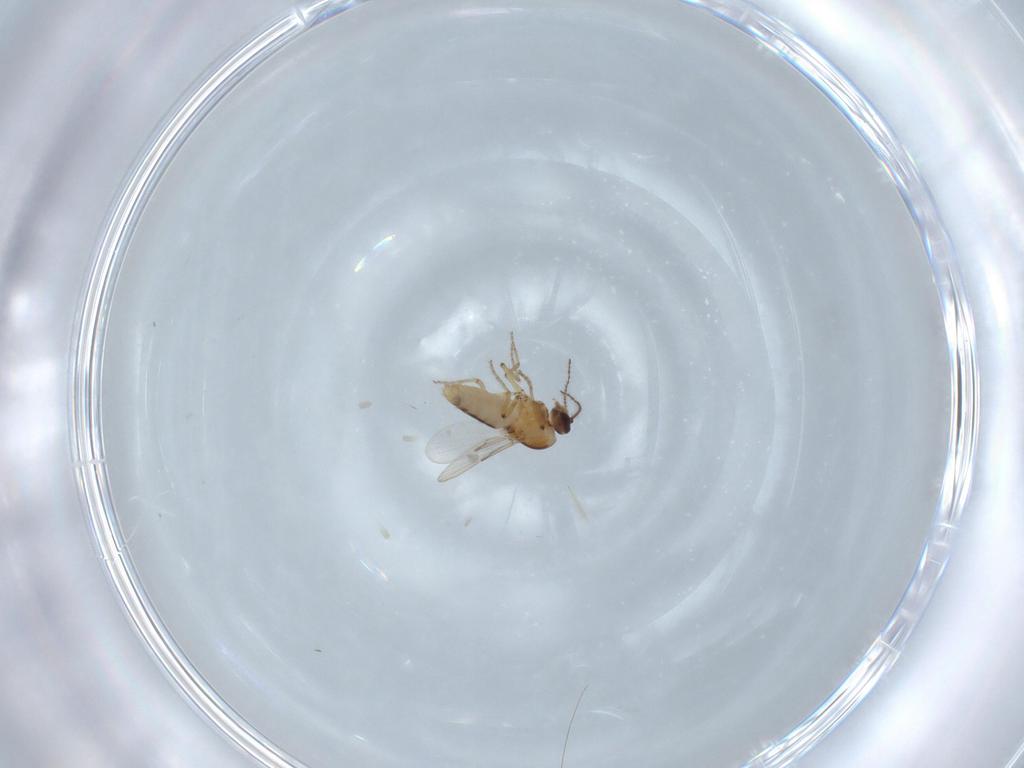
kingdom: Animalia
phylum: Arthropoda
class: Insecta
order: Diptera
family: Ceratopogonidae
